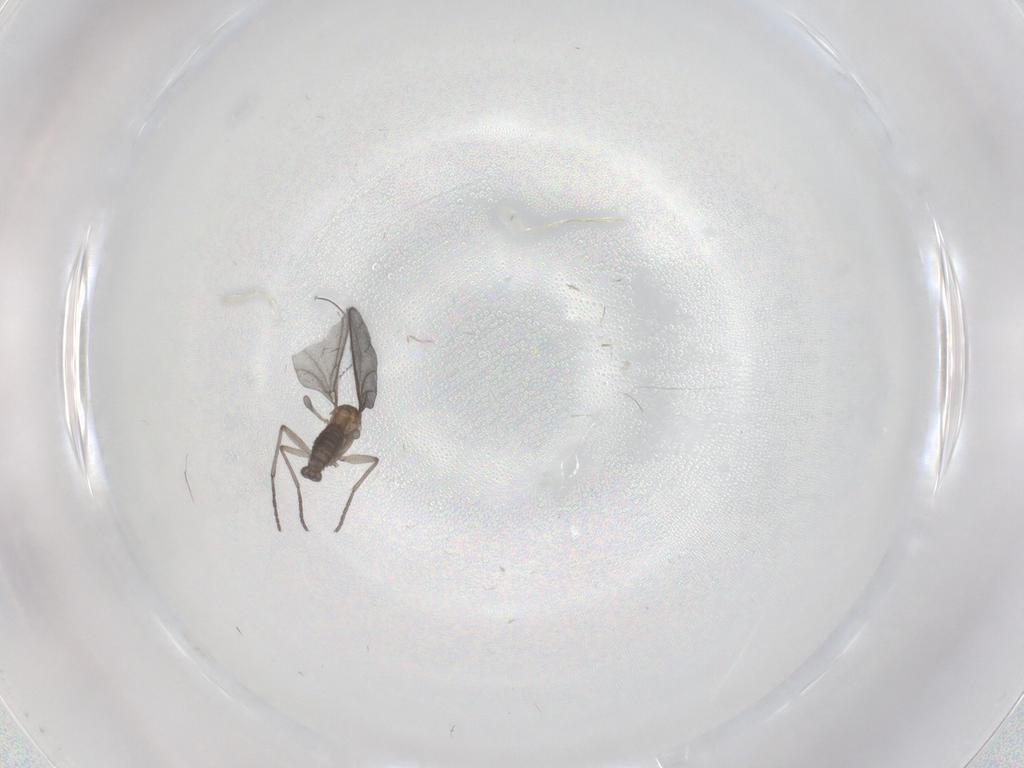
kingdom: Animalia
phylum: Arthropoda
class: Insecta
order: Diptera
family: Sciaridae
